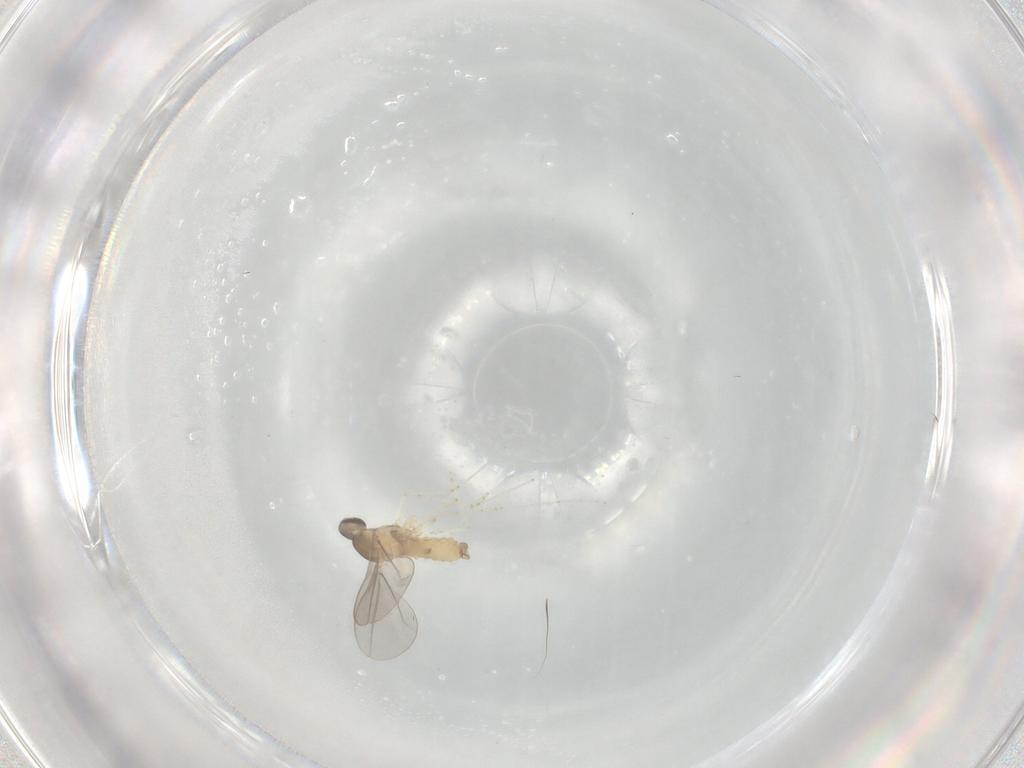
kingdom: Animalia
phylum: Arthropoda
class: Insecta
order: Diptera
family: Cecidomyiidae
